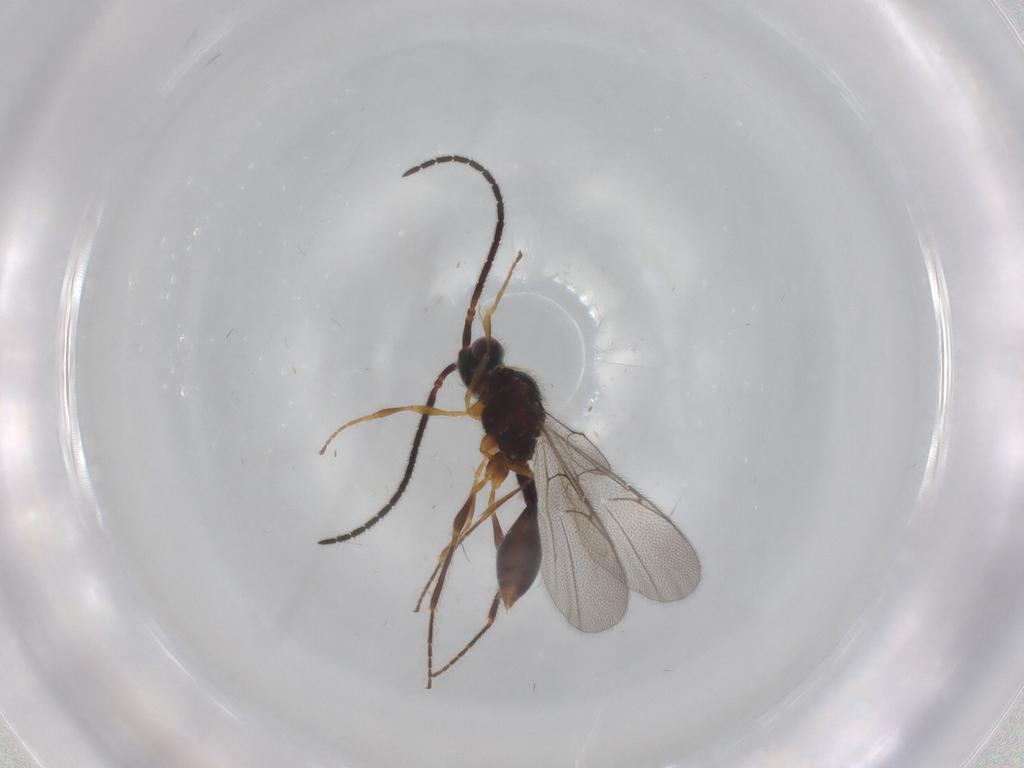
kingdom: Animalia
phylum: Arthropoda
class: Insecta
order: Hymenoptera
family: Diapriidae
